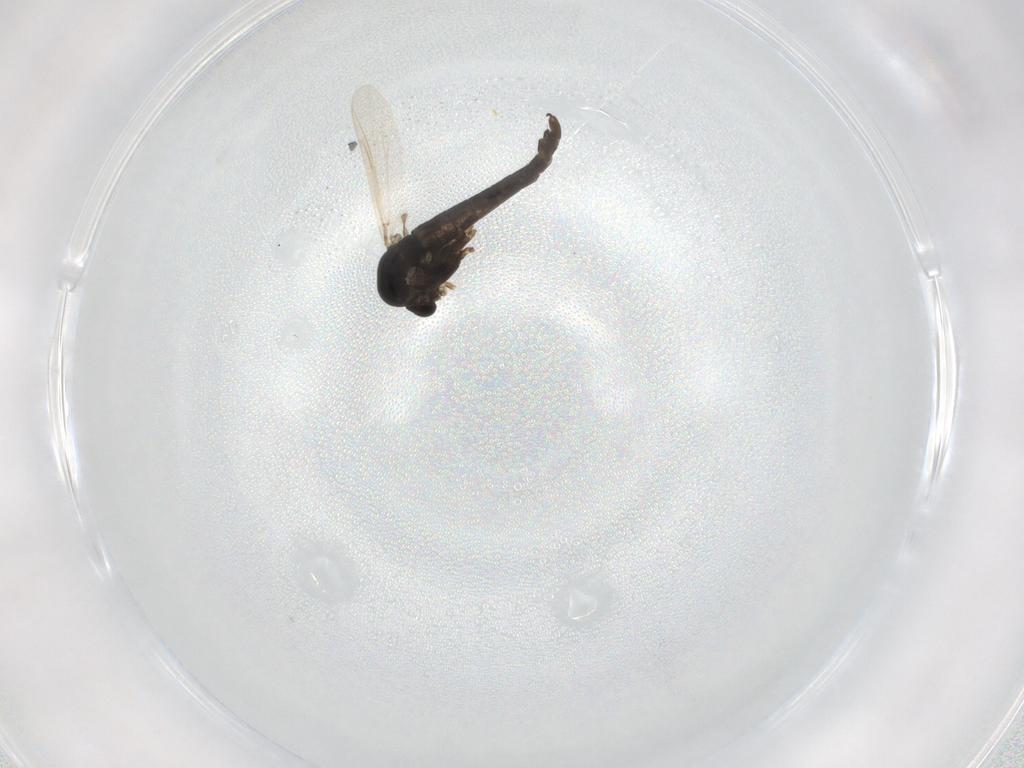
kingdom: Animalia
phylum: Arthropoda
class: Insecta
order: Diptera
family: Chironomidae
